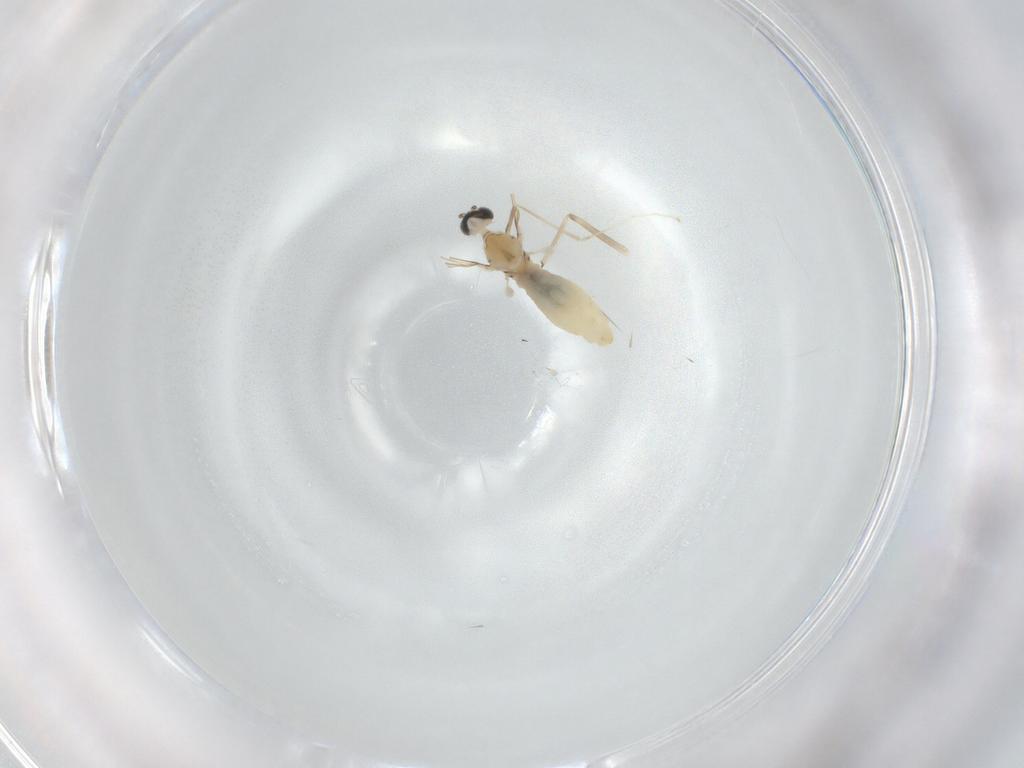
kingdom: Animalia
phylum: Arthropoda
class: Insecta
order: Diptera
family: Cecidomyiidae
